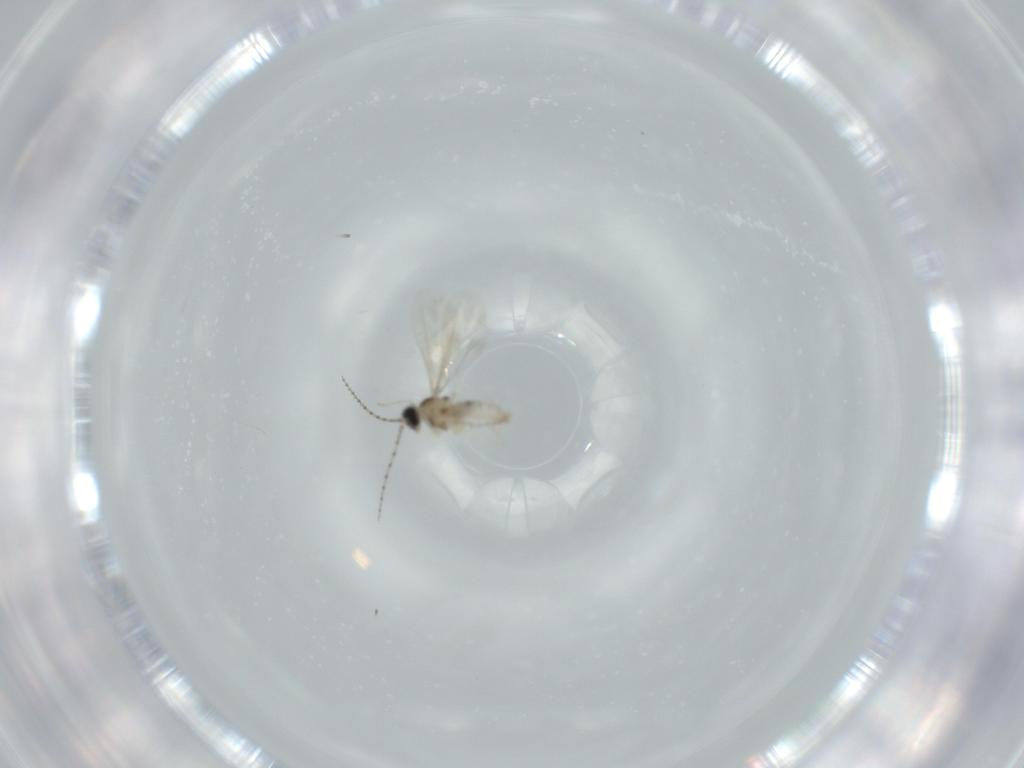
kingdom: Animalia
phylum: Arthropoda
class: Insecta
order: Diptera
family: Cecidomyiidae
